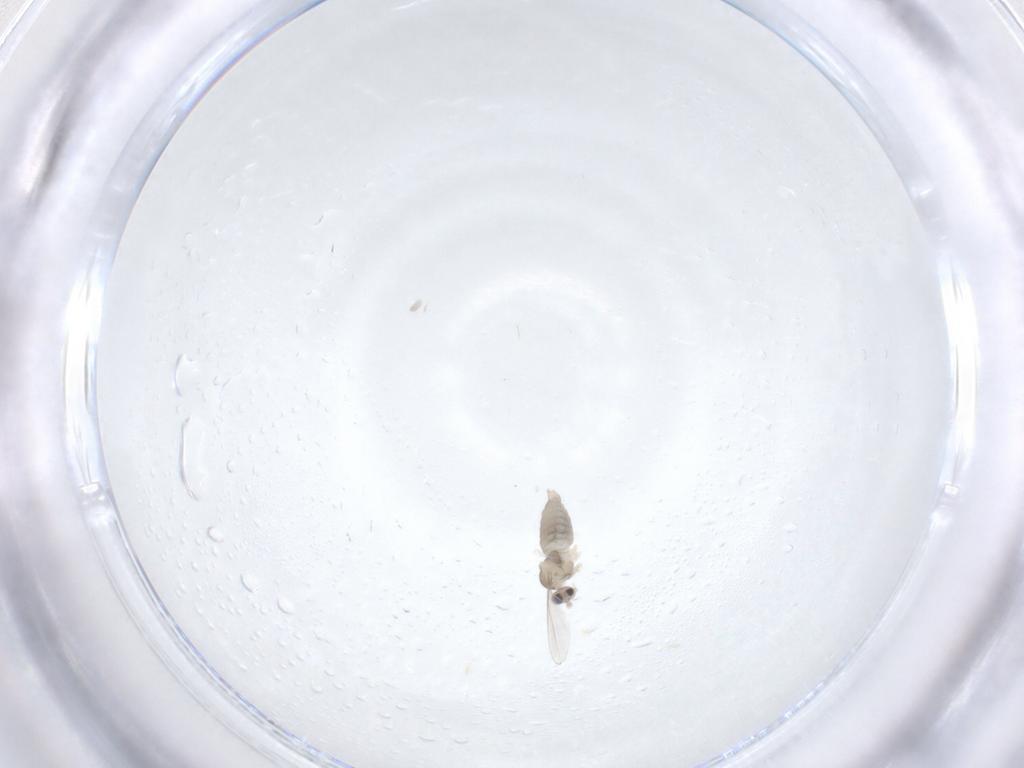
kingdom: Animalia
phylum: Arthropoda
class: Insecta
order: Diptera
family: Cecidomyiidae
